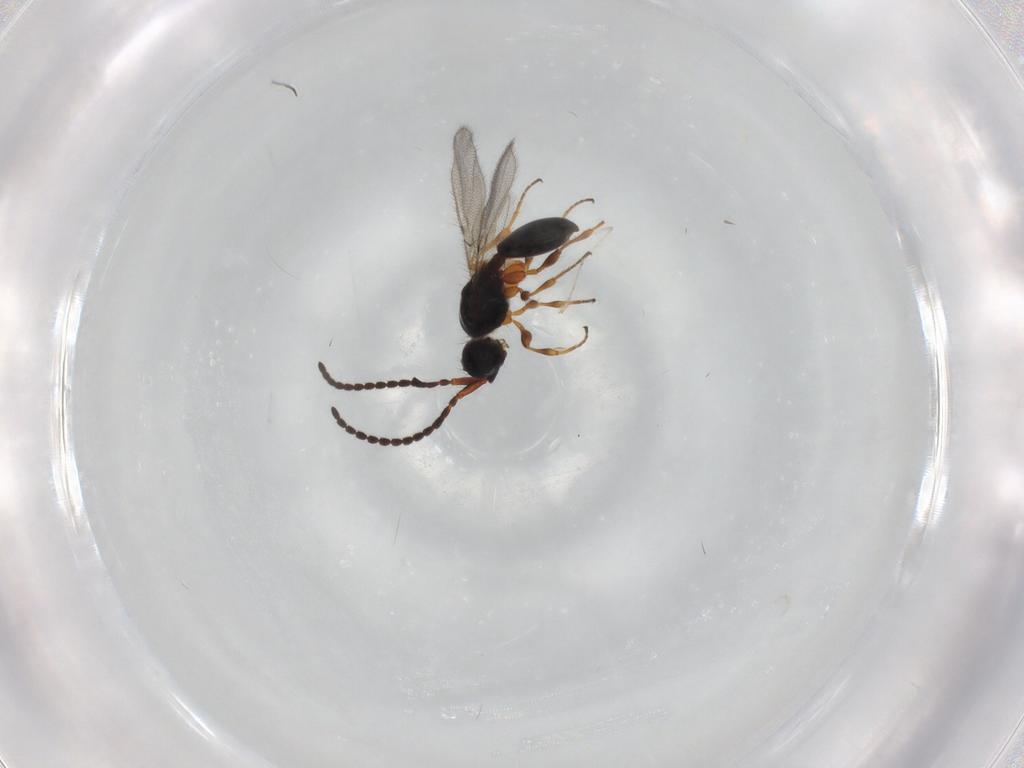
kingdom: Animalia
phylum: Arthropoda
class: Insecta
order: Hymenoptera
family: Diapriidae
